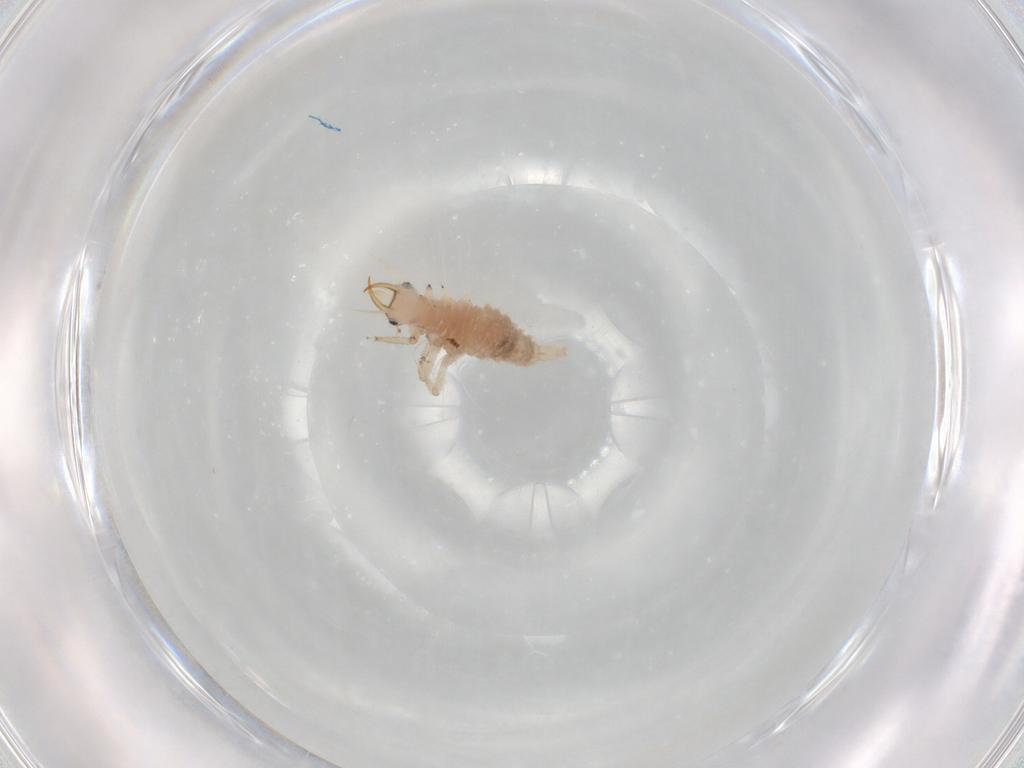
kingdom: Animalia
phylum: Arthropoda
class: Insecta
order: Neuroptera
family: Chrysopidae
